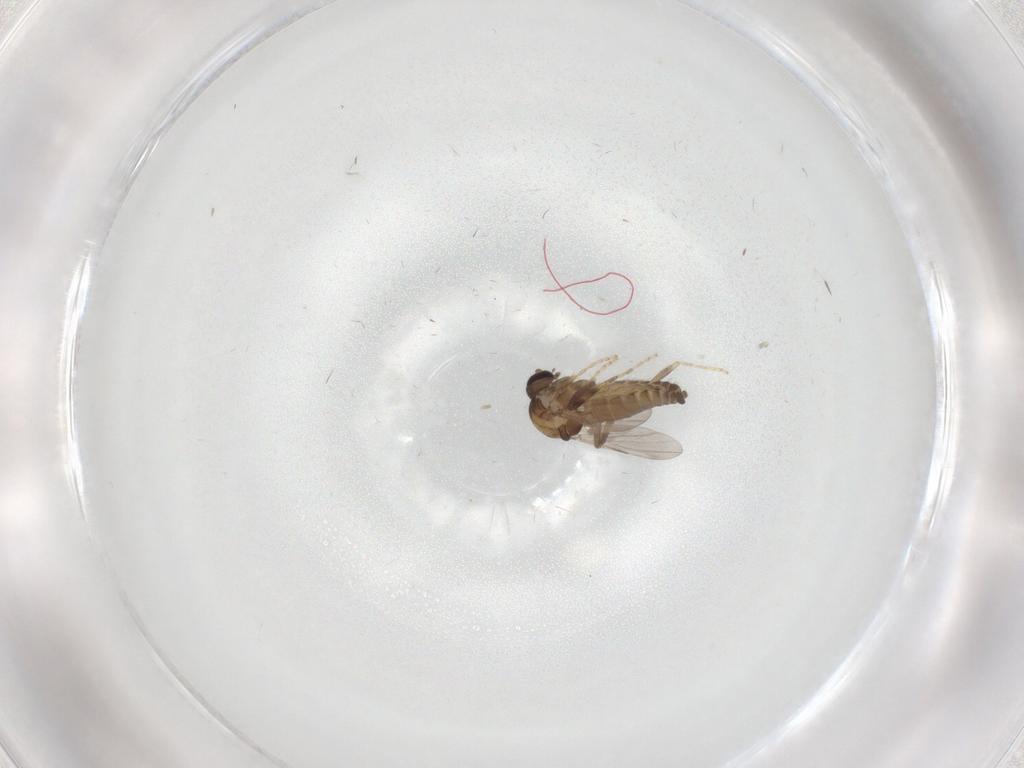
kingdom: Animalia
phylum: Arthropoda
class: Insecta
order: Diptera
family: Ceratopogonidae
